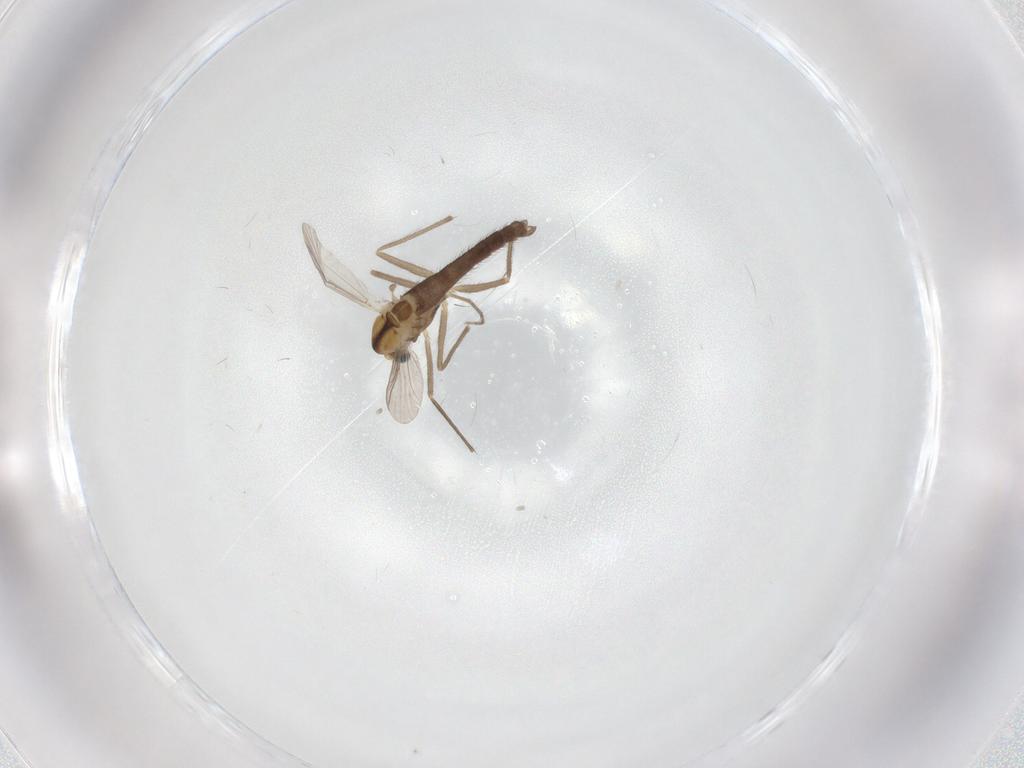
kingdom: Animalia
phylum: Arthropoda
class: Insecta
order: Diptera
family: Chironomidae
